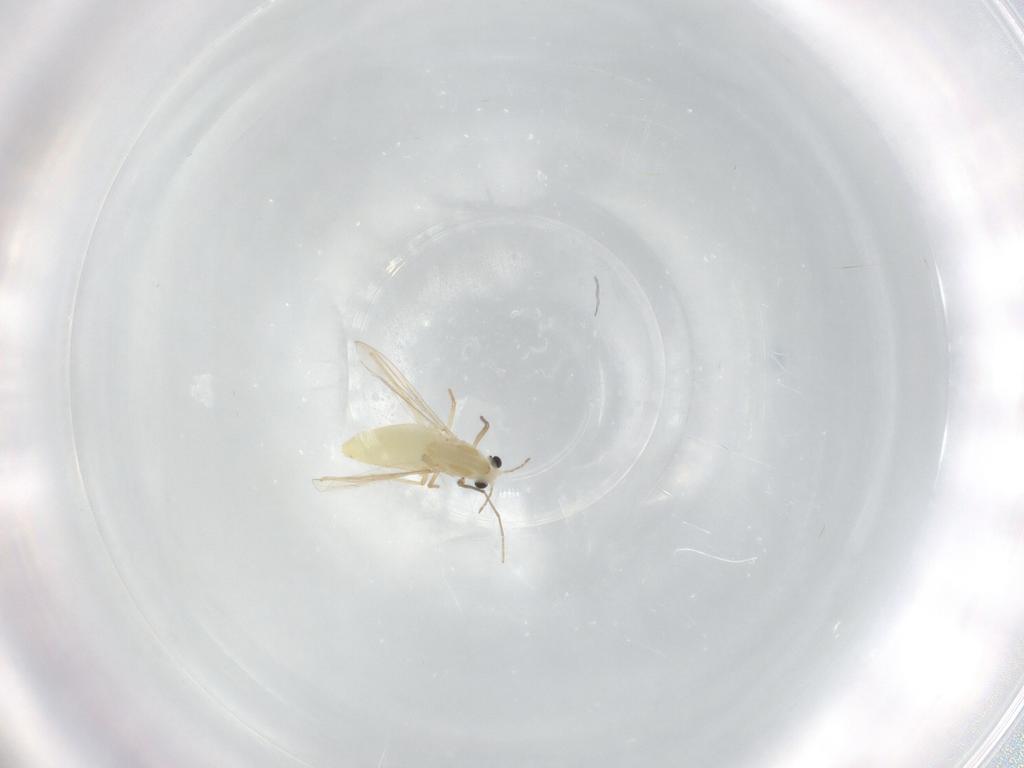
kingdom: Animalia
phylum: Arthropoda
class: Insecta
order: Diptera
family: Chironomidae
